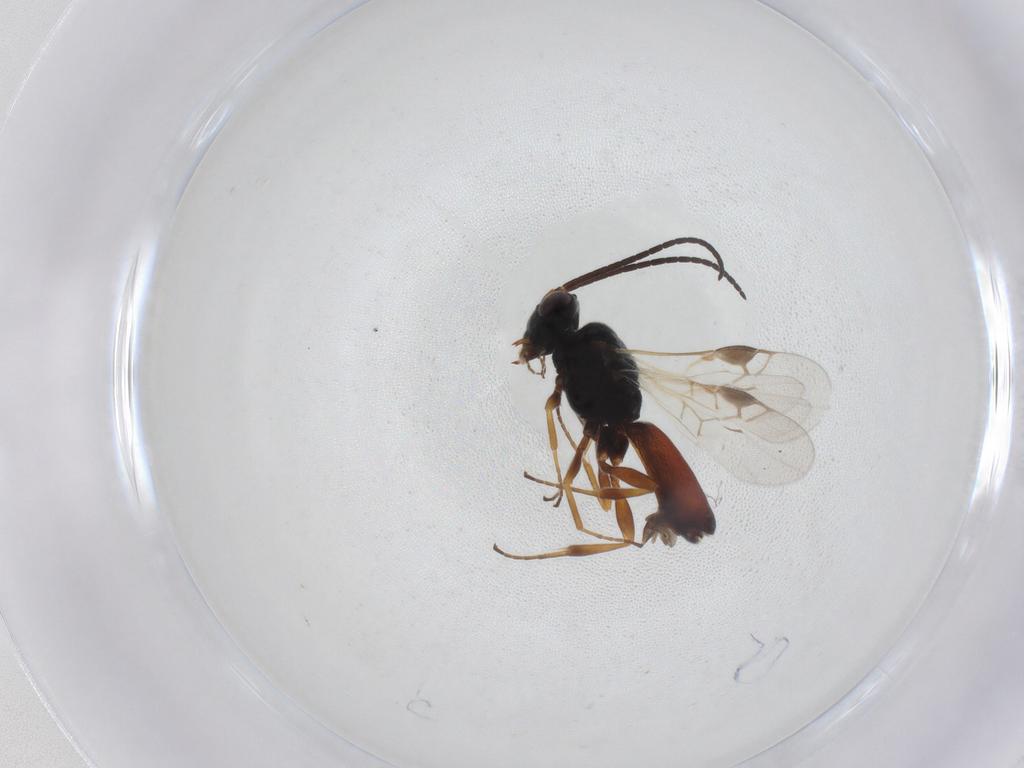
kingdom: Animalia
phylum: Arthropoda
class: Insecta
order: Hymenoptera
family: Braconidae
